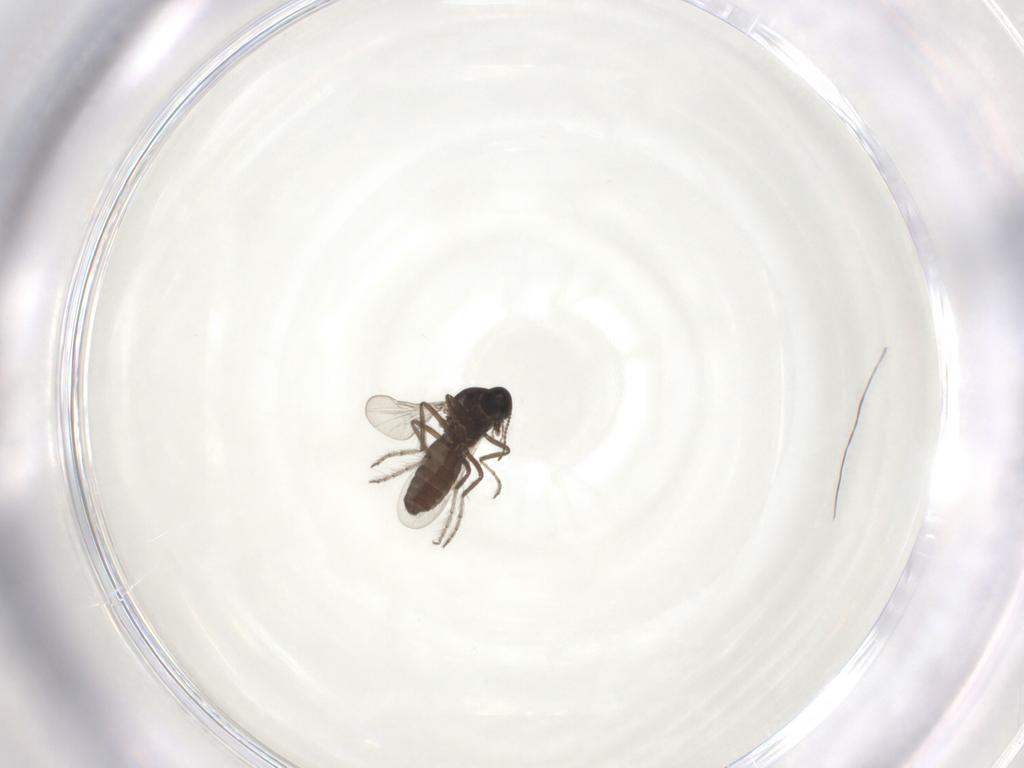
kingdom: Animalia
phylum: Arthropoda
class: Insecta
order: Diptera
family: Ceratopogonidae
